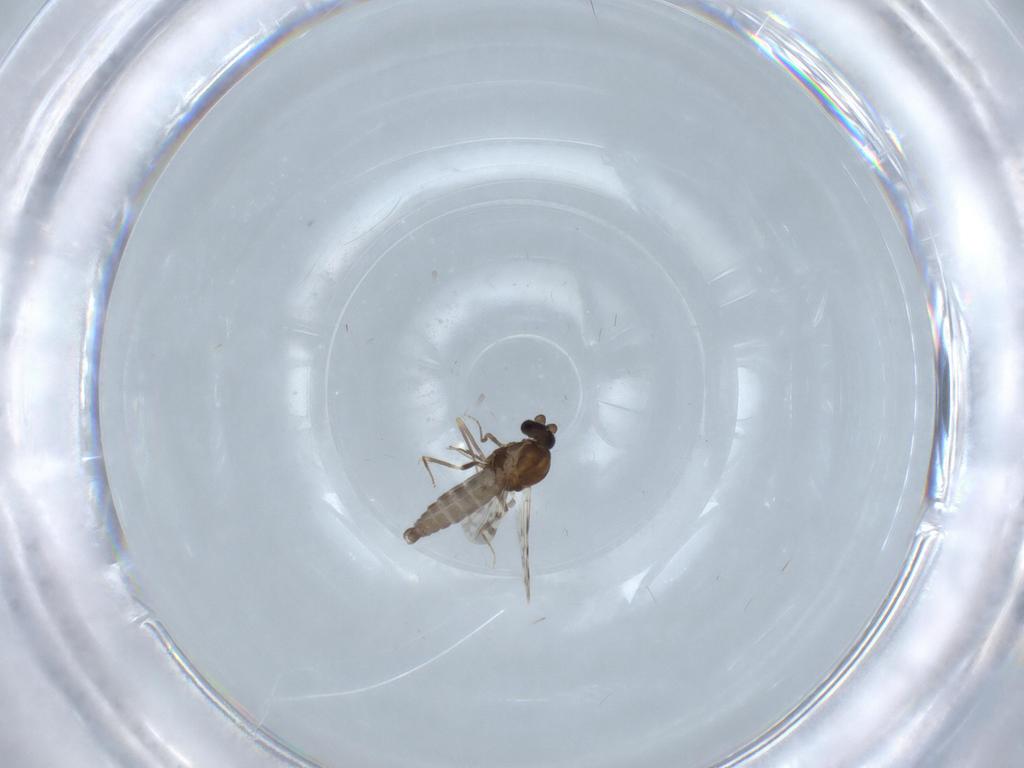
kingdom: Animalia
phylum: Arthropoda
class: Insecta
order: Diptera
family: Ceratopogonidae
